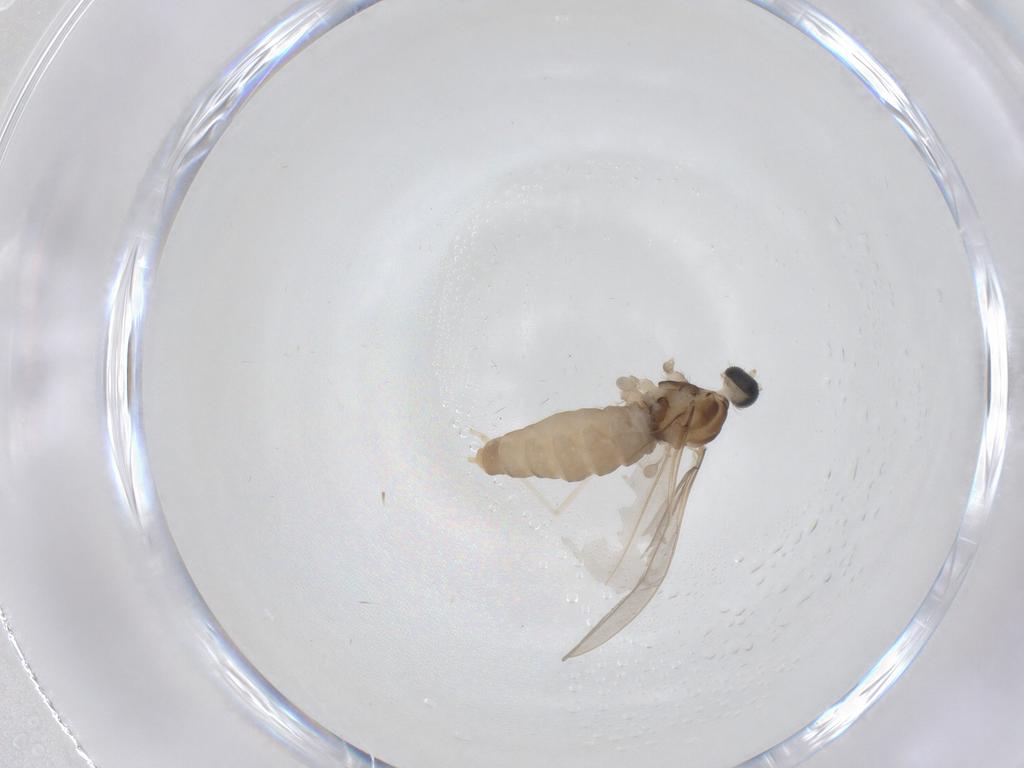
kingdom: Animalia
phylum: Arthropoda
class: Insecta
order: Diptera
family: Cecidomyiidae
